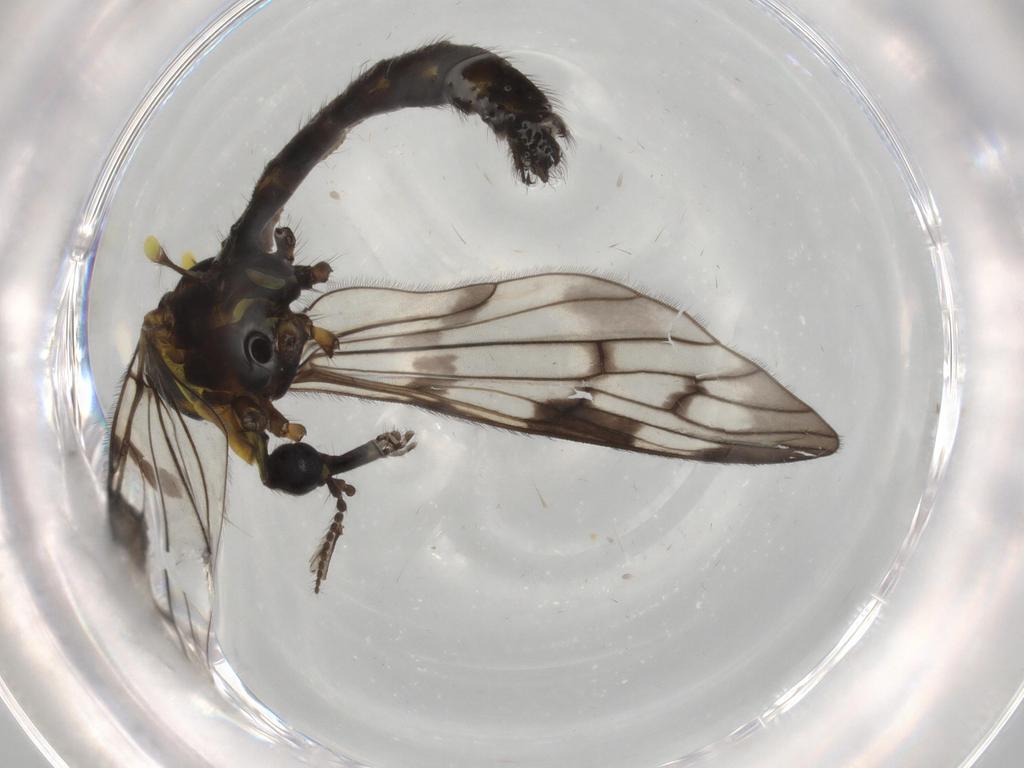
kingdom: Animalia
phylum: Arthropoda
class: Insecta
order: Diptera
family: Limoniidae
